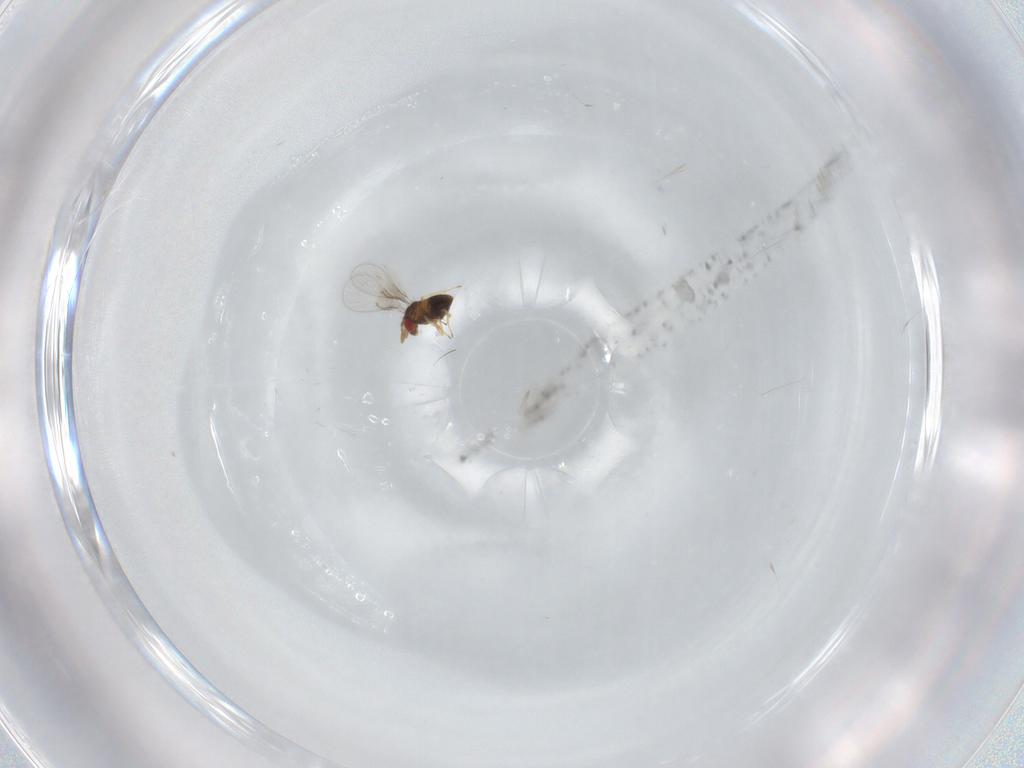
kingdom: Animalia
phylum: Arthropoda
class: Insecta
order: Hymenoptera
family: Trichogrammatidae
